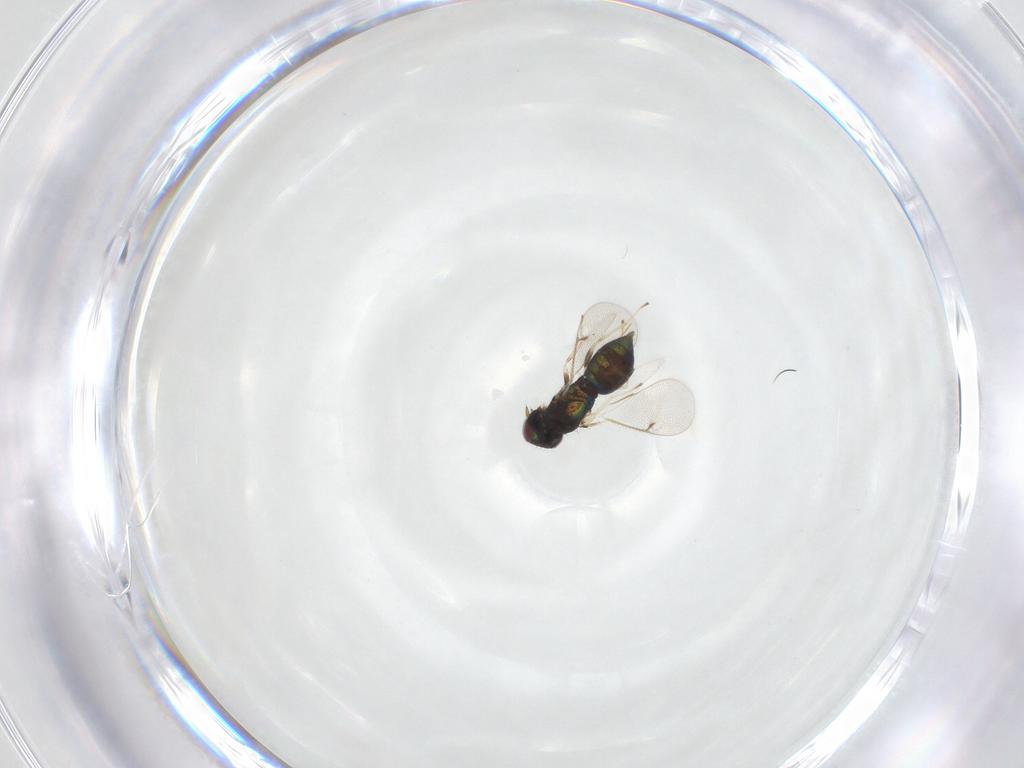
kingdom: Animalia
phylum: Arthropoda
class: Insecta
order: Hymenoptera
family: Eulophidae
